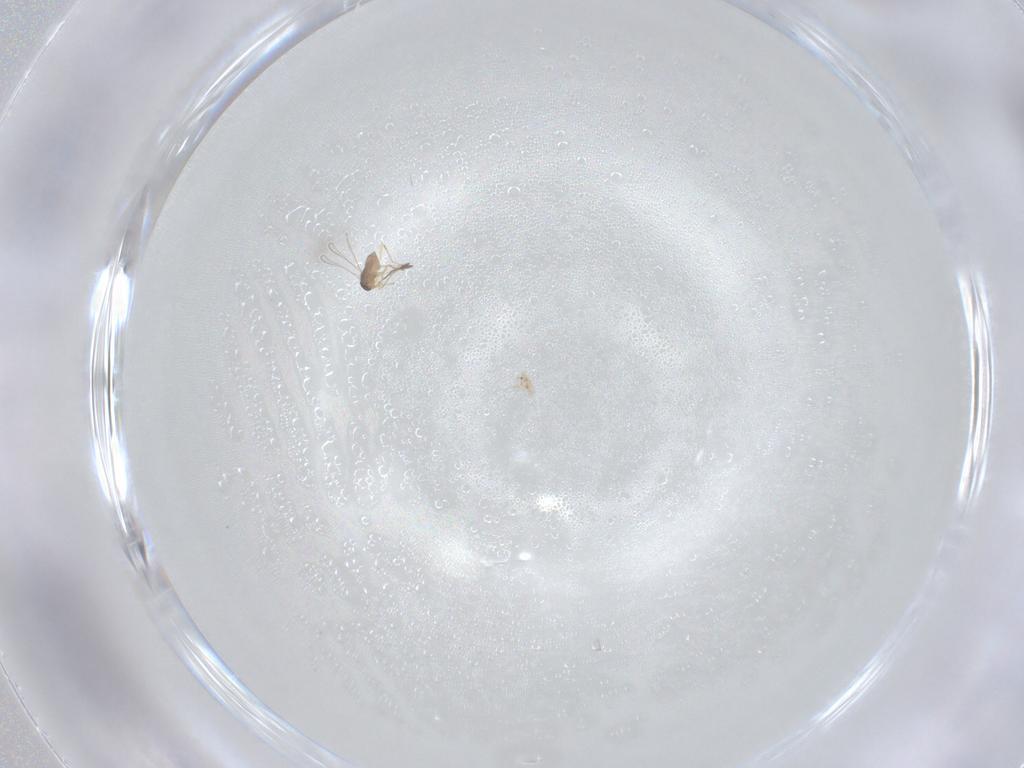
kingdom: Animalia
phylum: Arthropoda
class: Insecta
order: Blattodea
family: Blaberidae
